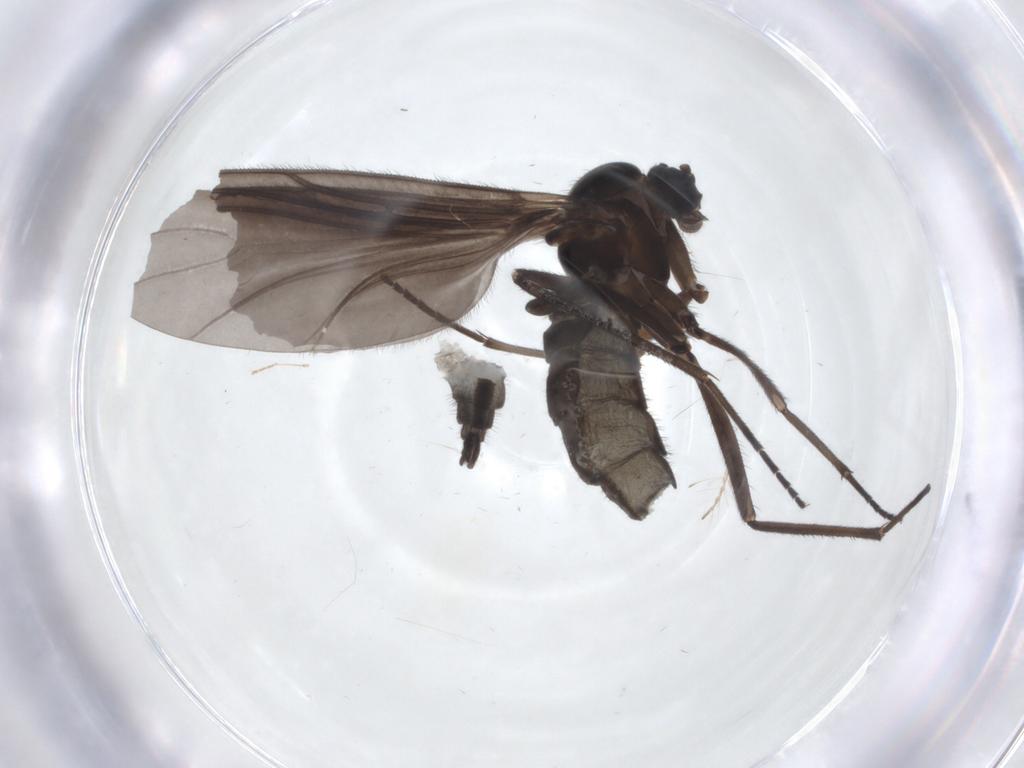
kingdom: Animalia
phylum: Arthropoda
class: Insecta
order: Diptera
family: Sciaridae
